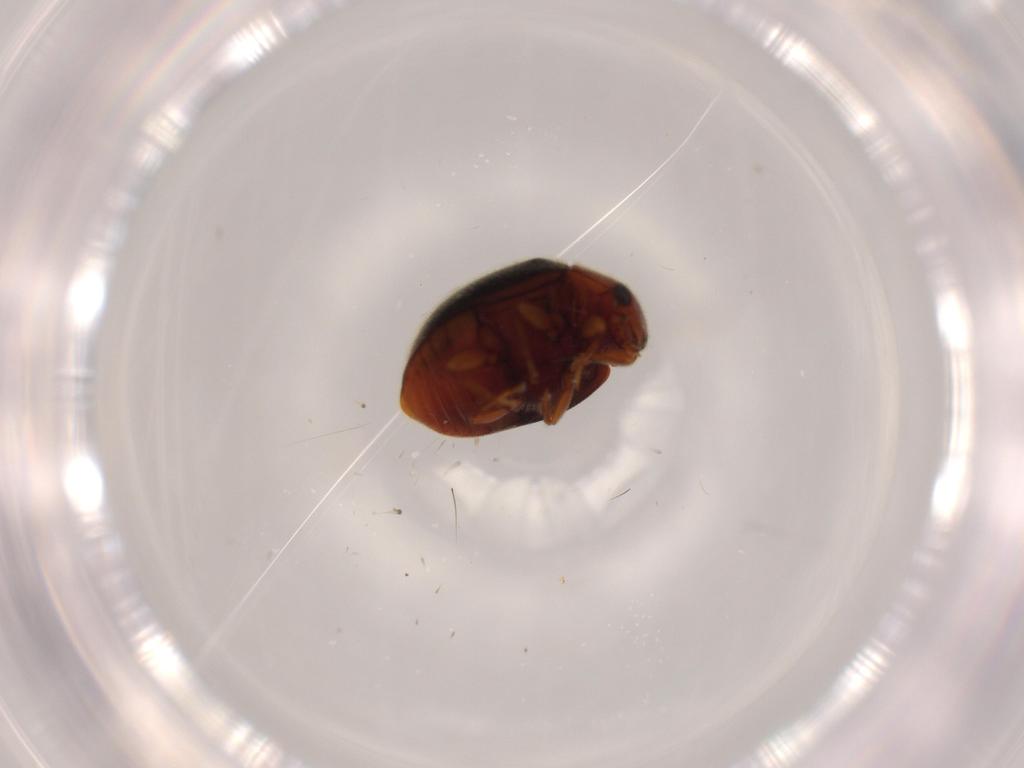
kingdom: Animalia
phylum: Arthropoda
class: Insecta
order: Coleoptera
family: Coccinellidae
